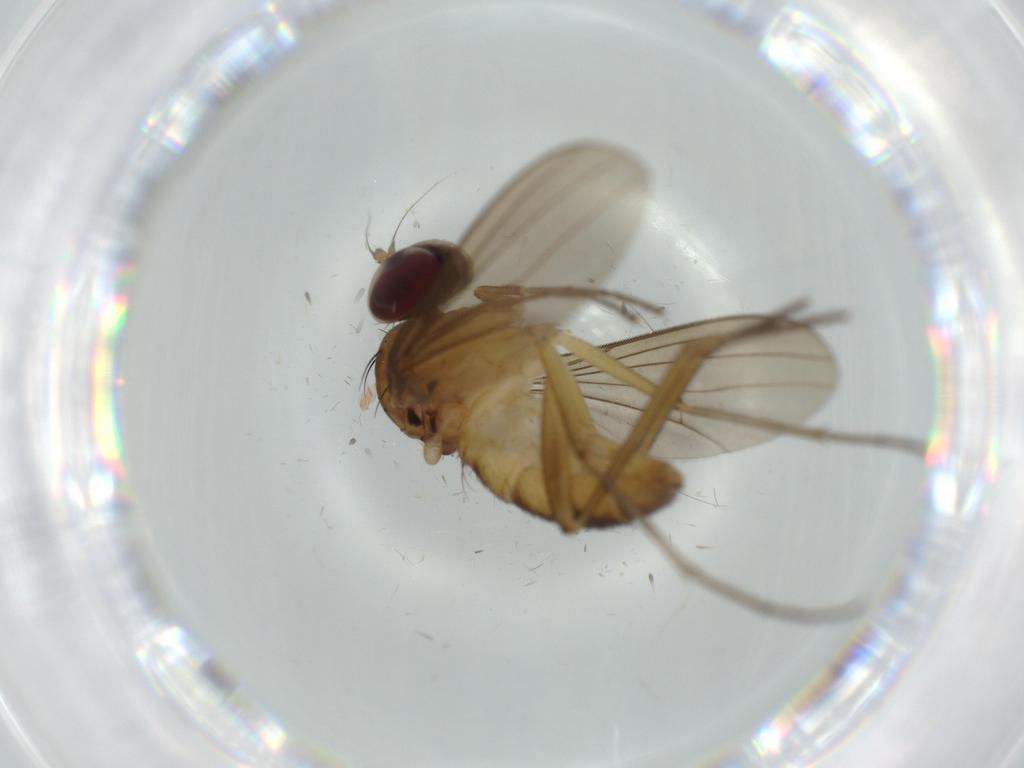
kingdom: Animalia
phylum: Arthropoda
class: Insecta
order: Diptera
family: Dolichopodidae
